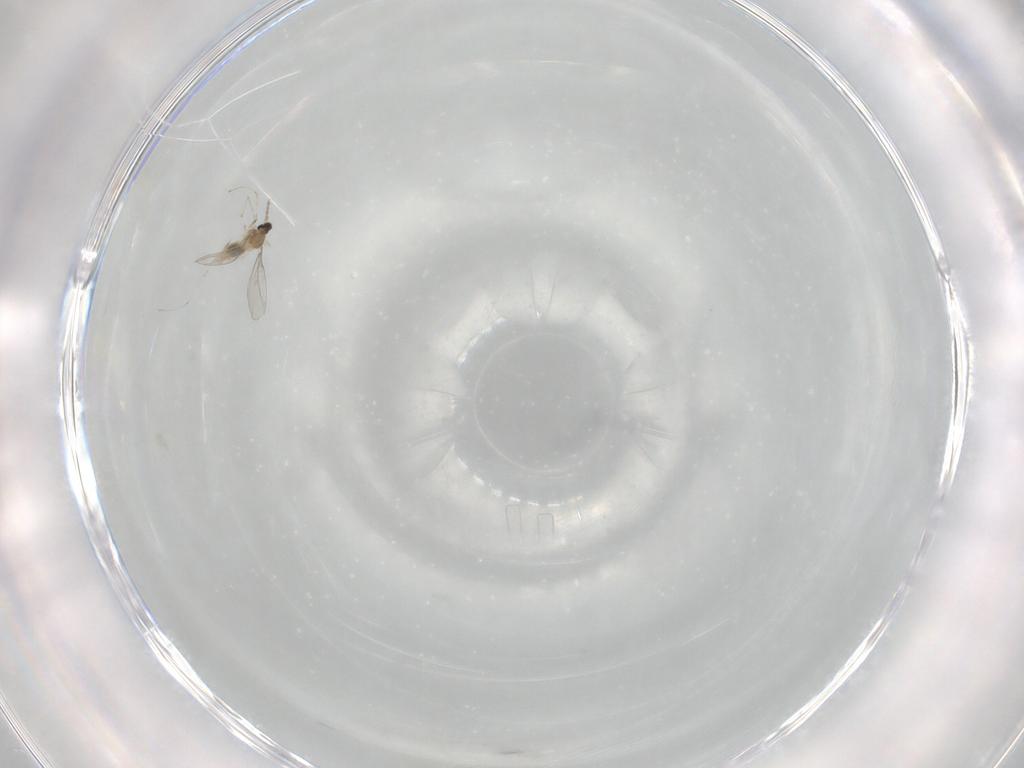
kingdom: Animalia
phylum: Arthropoda
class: Insecta
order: Diptera
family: Cecidomyiidae
